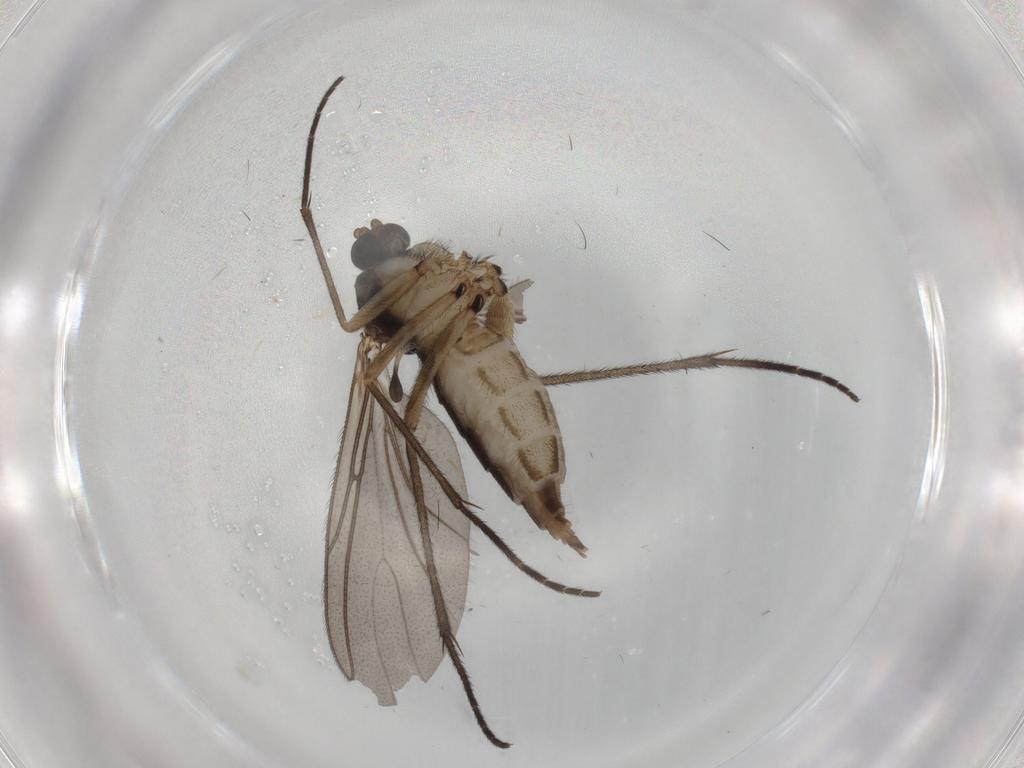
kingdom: Animalia
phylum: Arthropoda
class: Insecta
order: Diptera
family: Sciaridae
